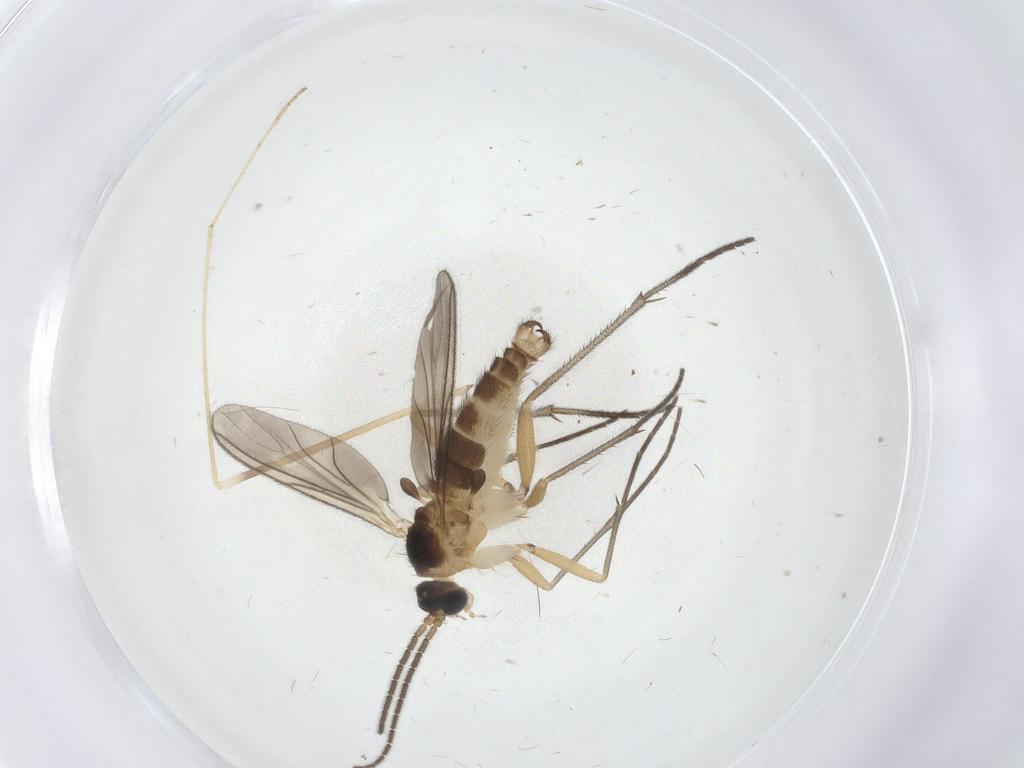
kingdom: Animalia
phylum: Arthropoda
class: Insecta
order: Diptera
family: Sciaridae
